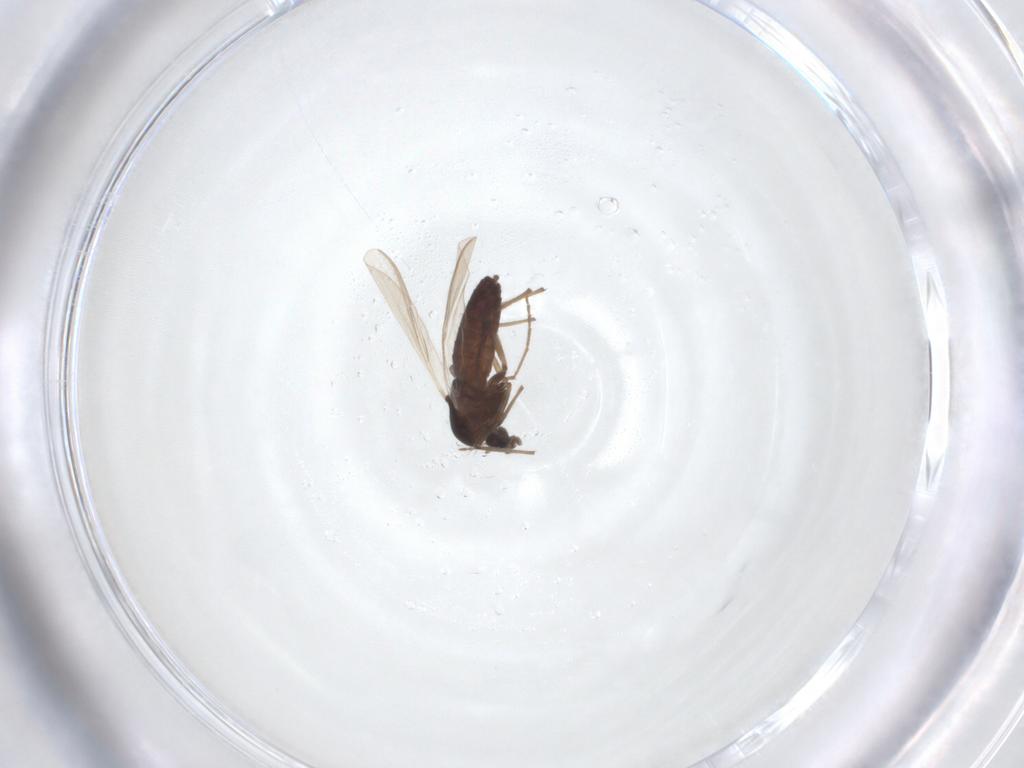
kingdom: Animalia
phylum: Arthropoda
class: Insecta
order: Diptera
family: Chironomidae
